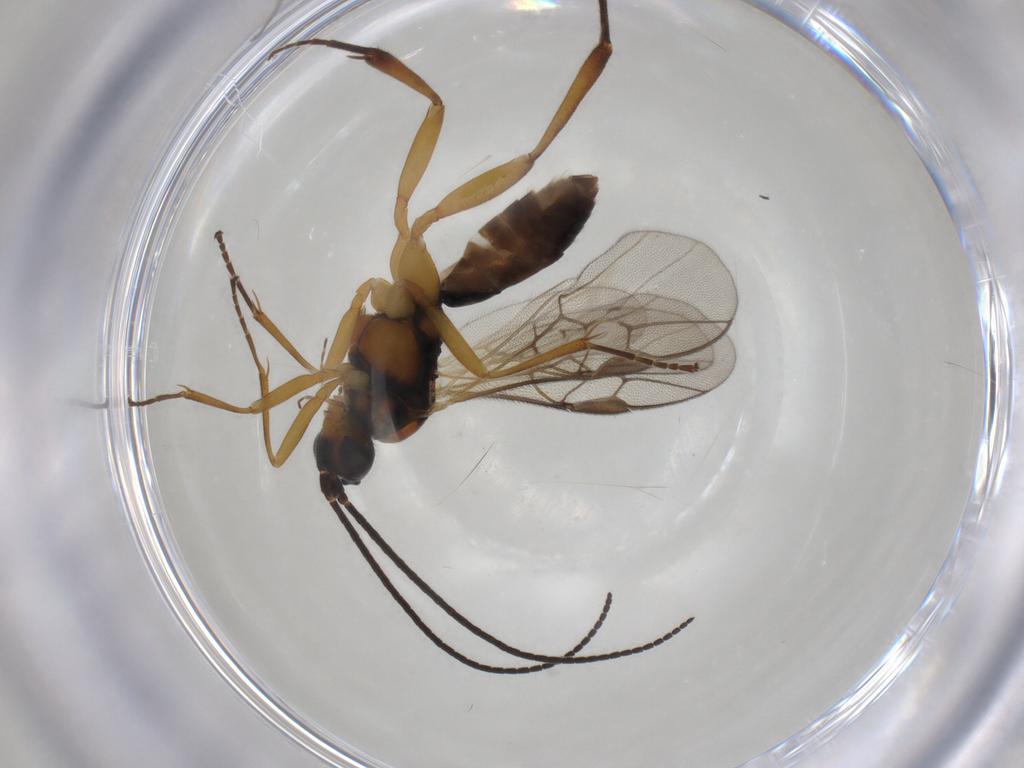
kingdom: Animalia
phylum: Arthropoda
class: Insecta
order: Hymenoptera
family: Braconidae
